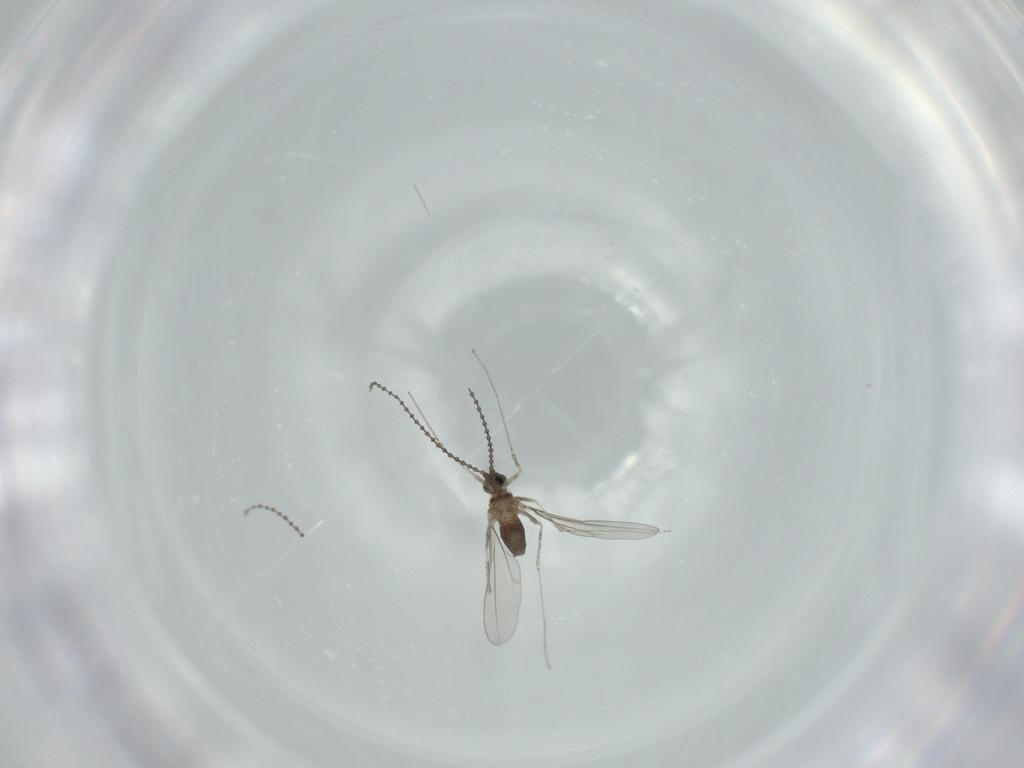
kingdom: Animalia
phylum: Arthropoda
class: Insecta
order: Diptera
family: Cecidomyiidae
